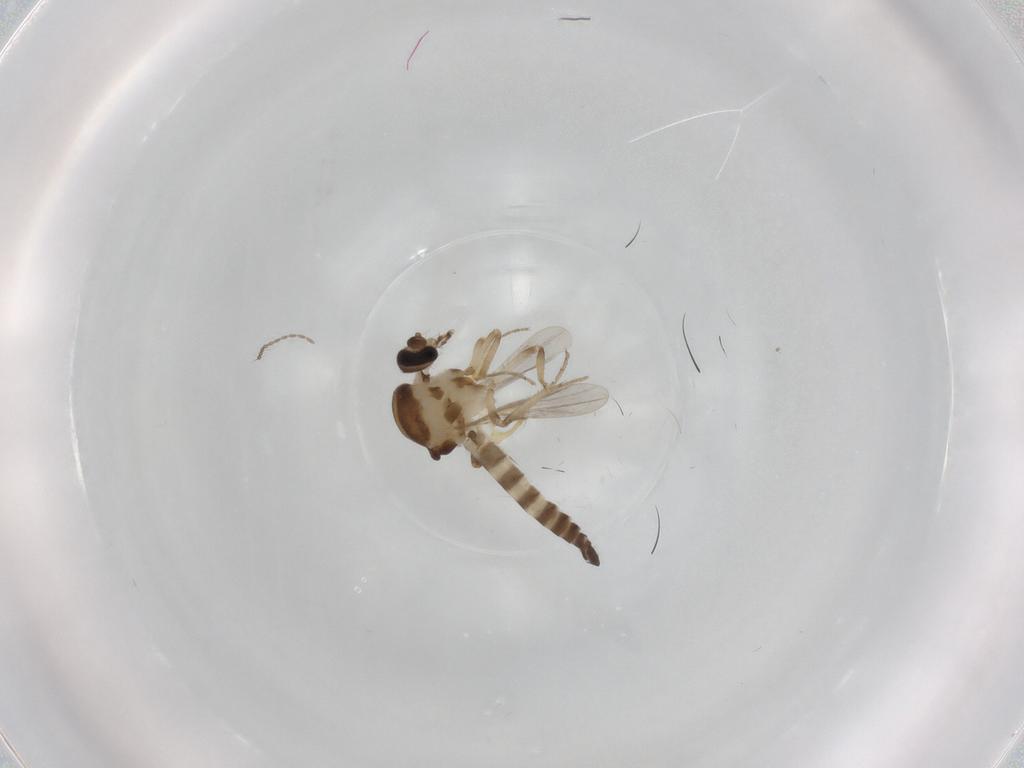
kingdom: Animalia
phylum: Arthropoda
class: Insecta
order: Diptera
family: Ceratopogonidae
